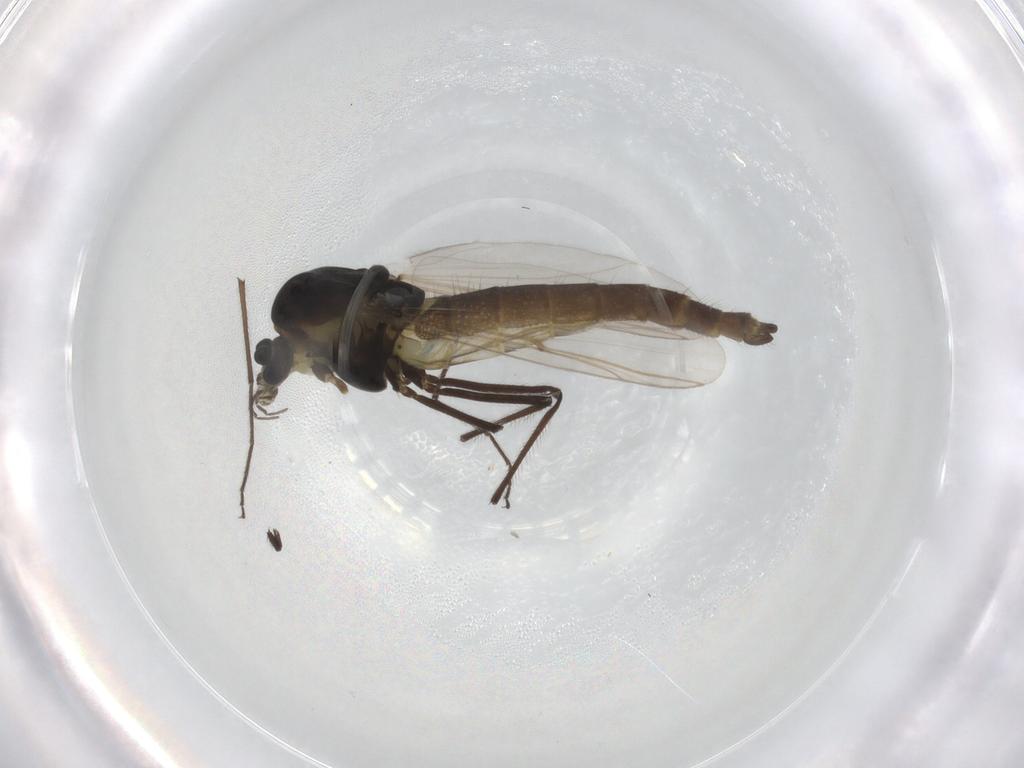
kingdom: Animalia
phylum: Arthropoda
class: Insecta
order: Diptera
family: Chironomidae
